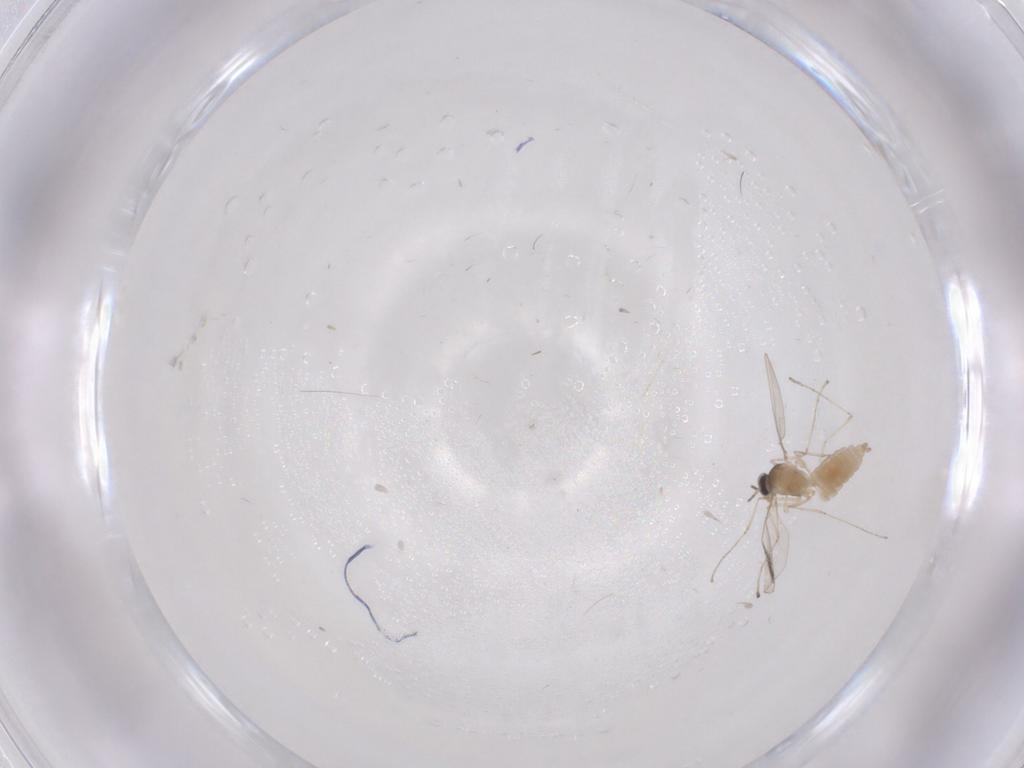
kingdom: Animalia
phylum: Arthropoda
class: Insecta
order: Diptera
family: Cecidomyiidae
